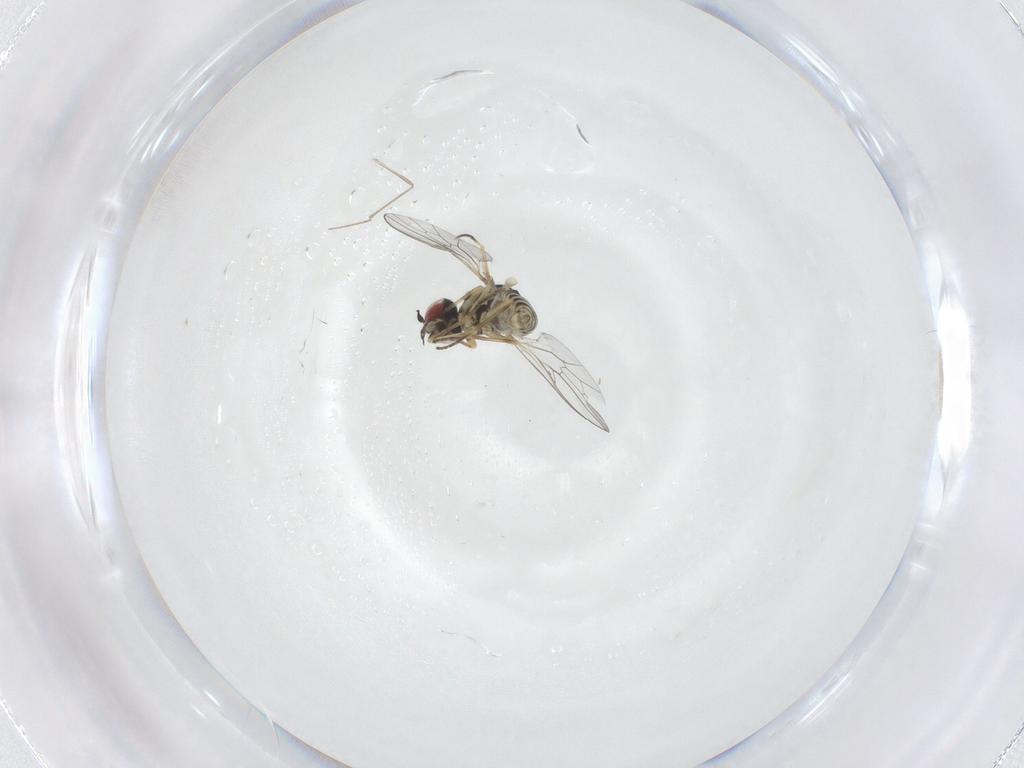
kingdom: Animalia
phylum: Arthropoda
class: Insecta
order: Diptera
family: Bombyliidae
